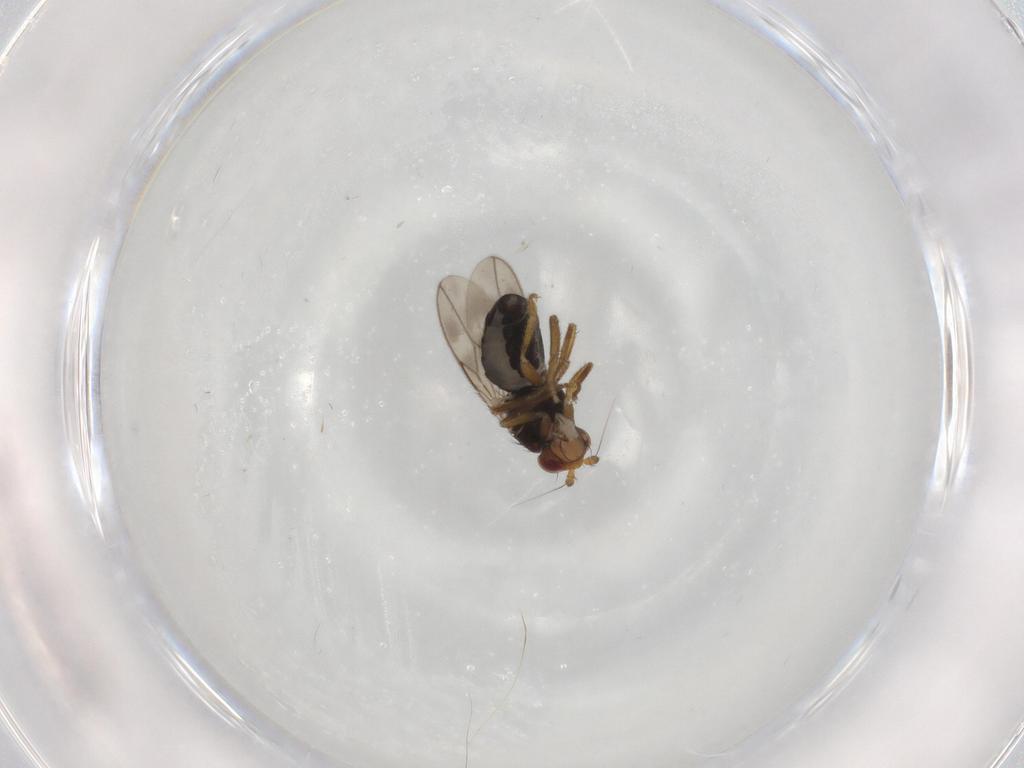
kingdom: Animalia
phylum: Arthropoda
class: Insecta
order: Diptera
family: Sphaeroceridae
